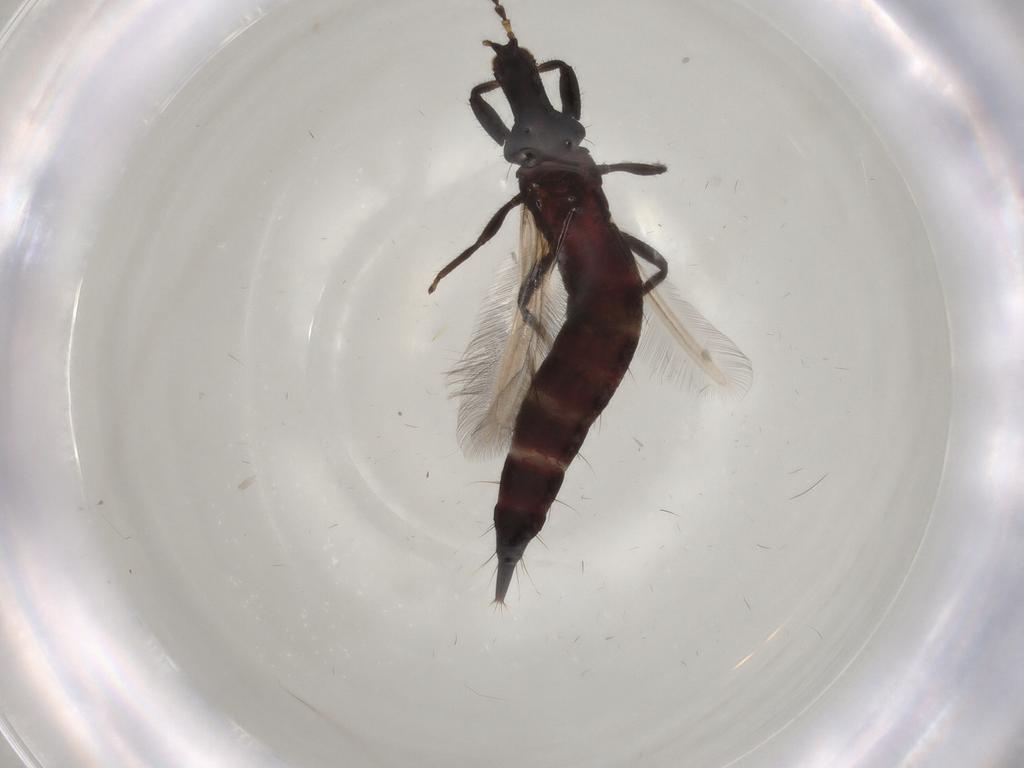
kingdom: Animalia
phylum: Arthropoda
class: Insecta
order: Thysanoptera
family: Phlaeothripidae
